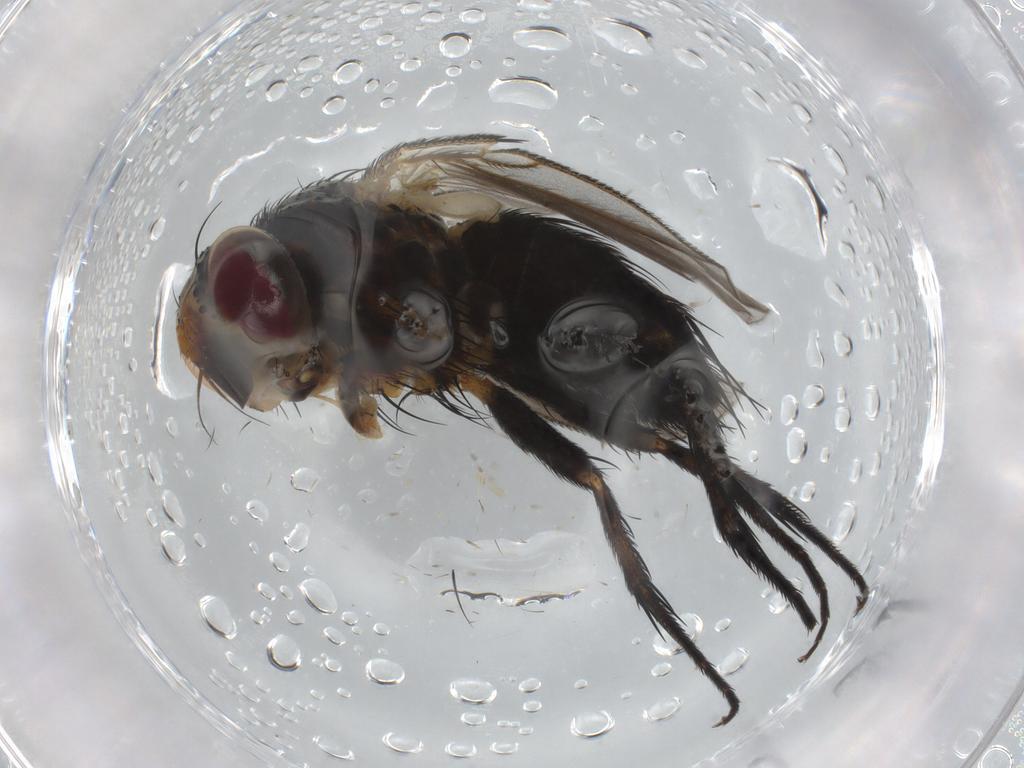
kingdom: Animalia
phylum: Arthropoda
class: Insecta
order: Diptera
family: Tachinidae
